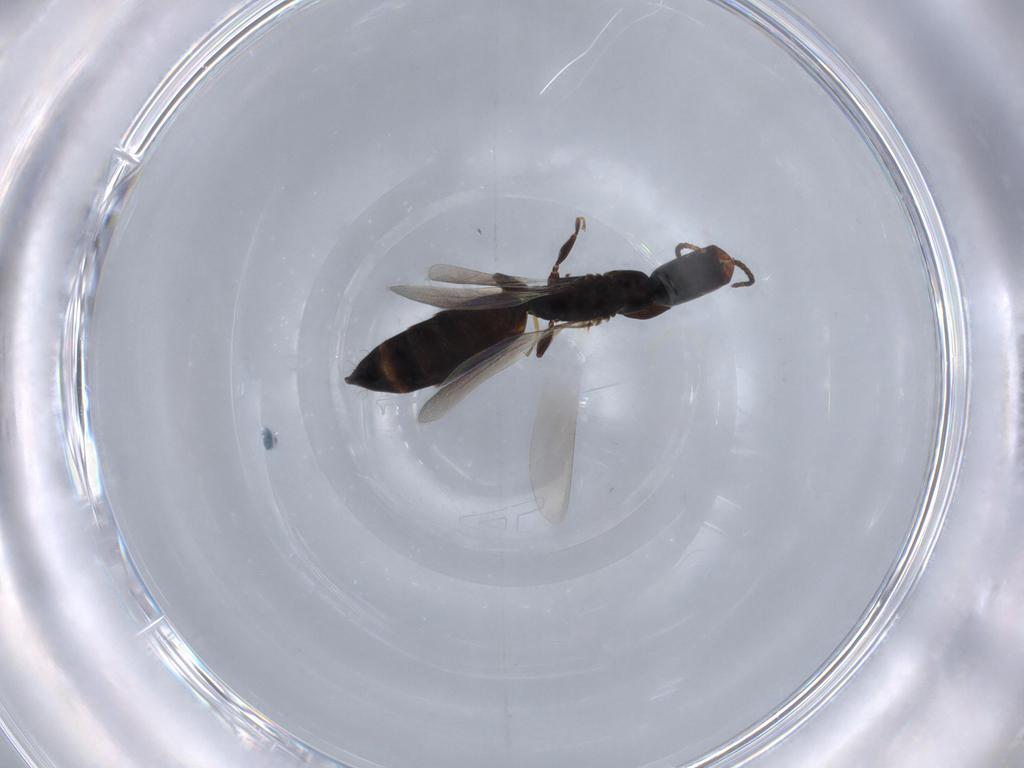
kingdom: Animalia
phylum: Arthropoda
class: Insecta
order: Hymenoptera
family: Bethylidae
